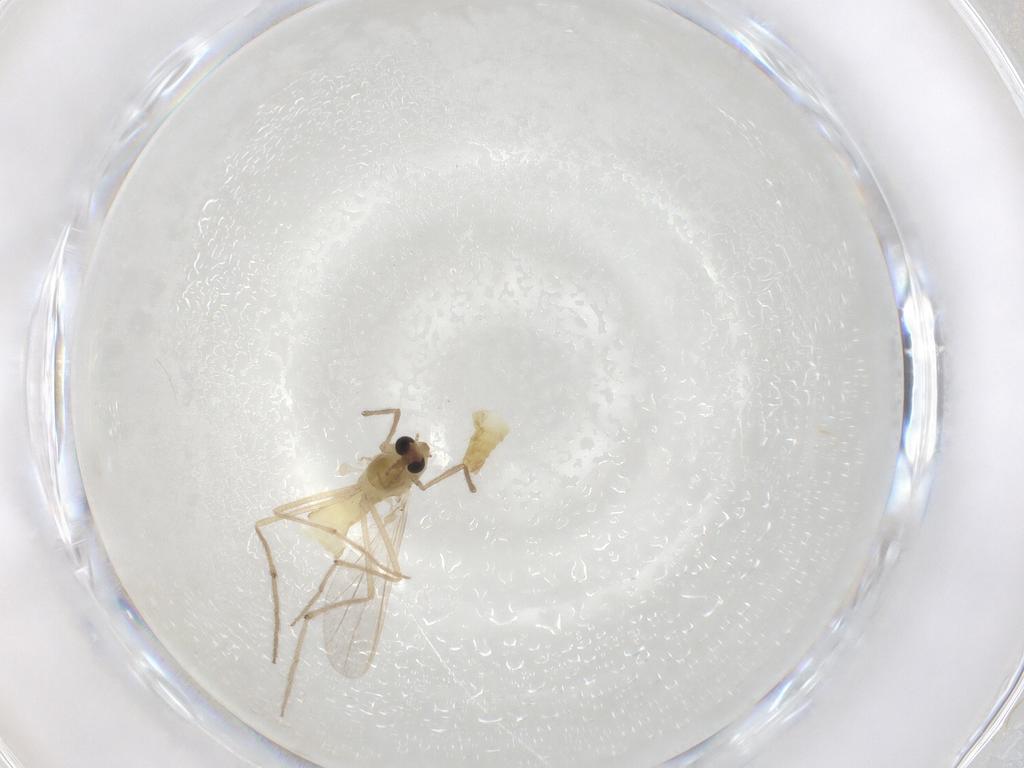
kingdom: Animalia
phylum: Arthropoda
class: Insecta
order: Diptera
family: Chironomidae
